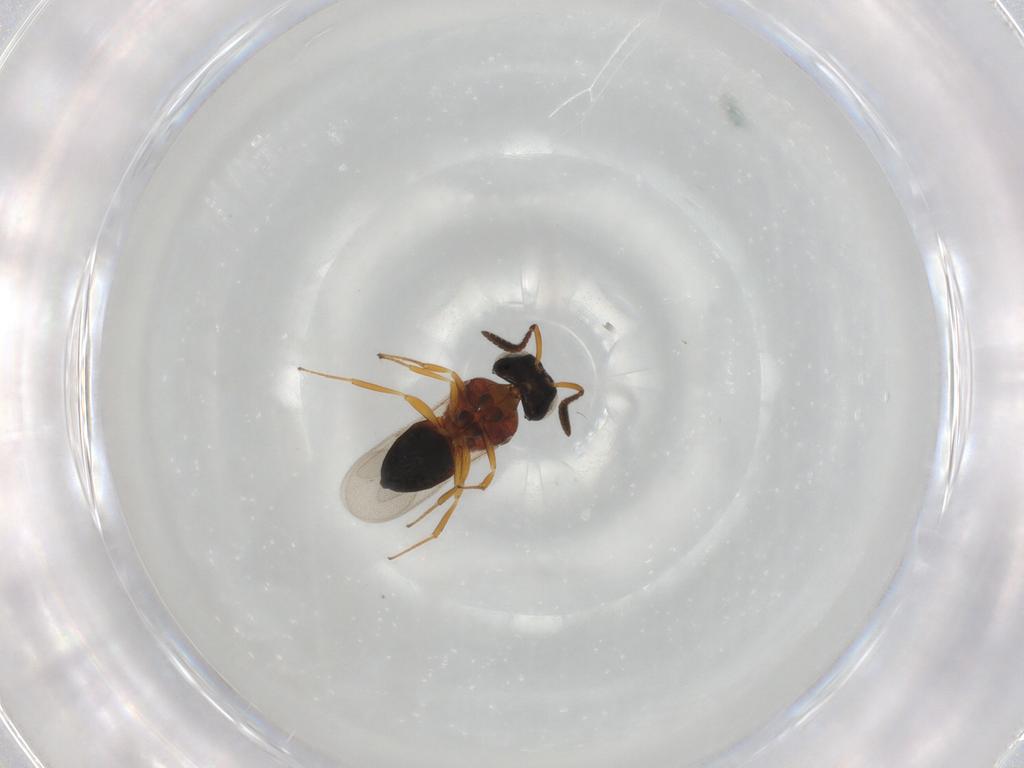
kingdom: Animalia
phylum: Arthropoda
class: Insecta
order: Hymenoptera
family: Scelionidae
